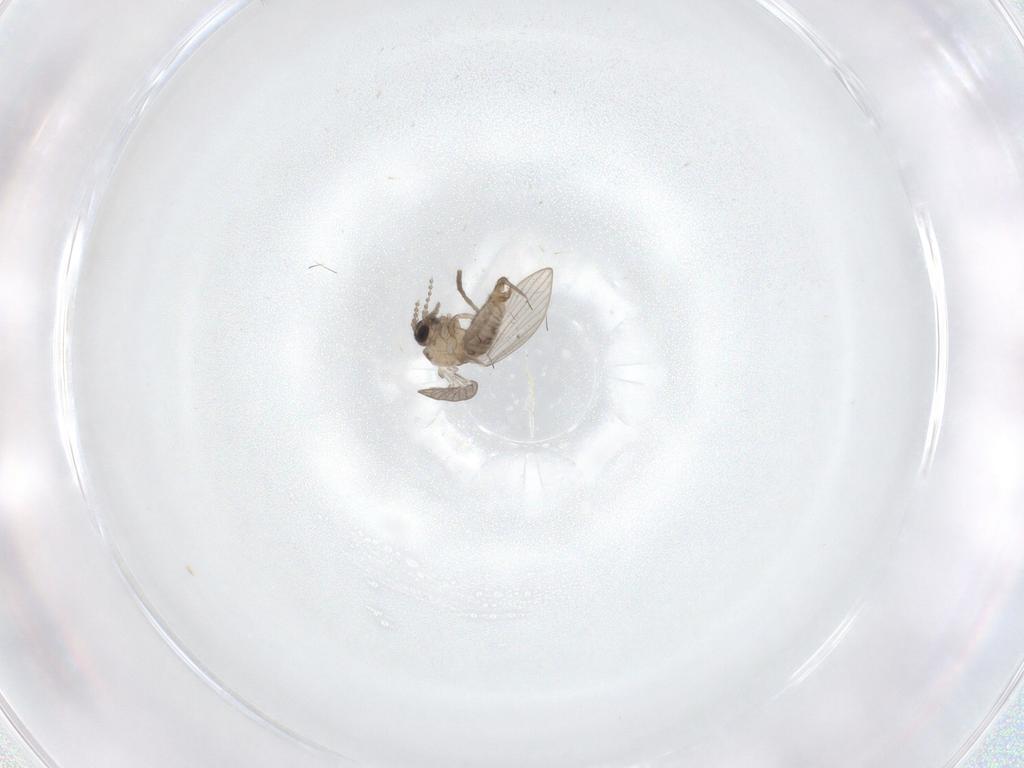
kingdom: Animalia
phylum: Arthropoda
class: Insecta
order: Diptera
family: Psychodidae
